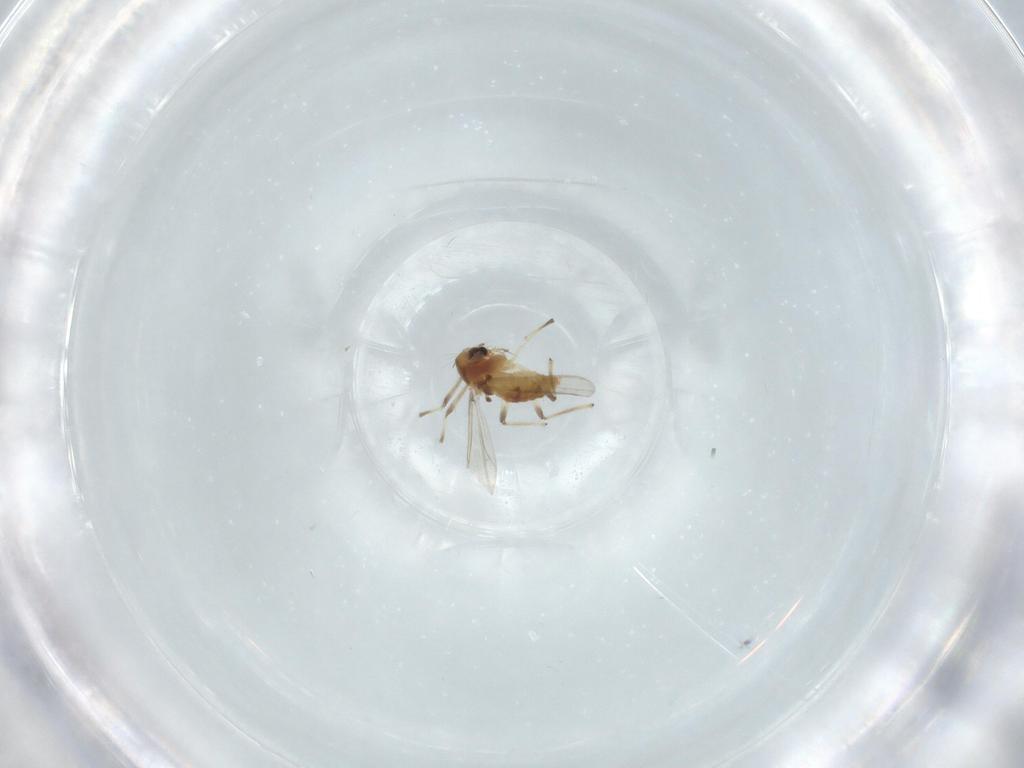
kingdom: Animalia
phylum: Arthropoda
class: Insecta
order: Diptera
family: Chironomidae
